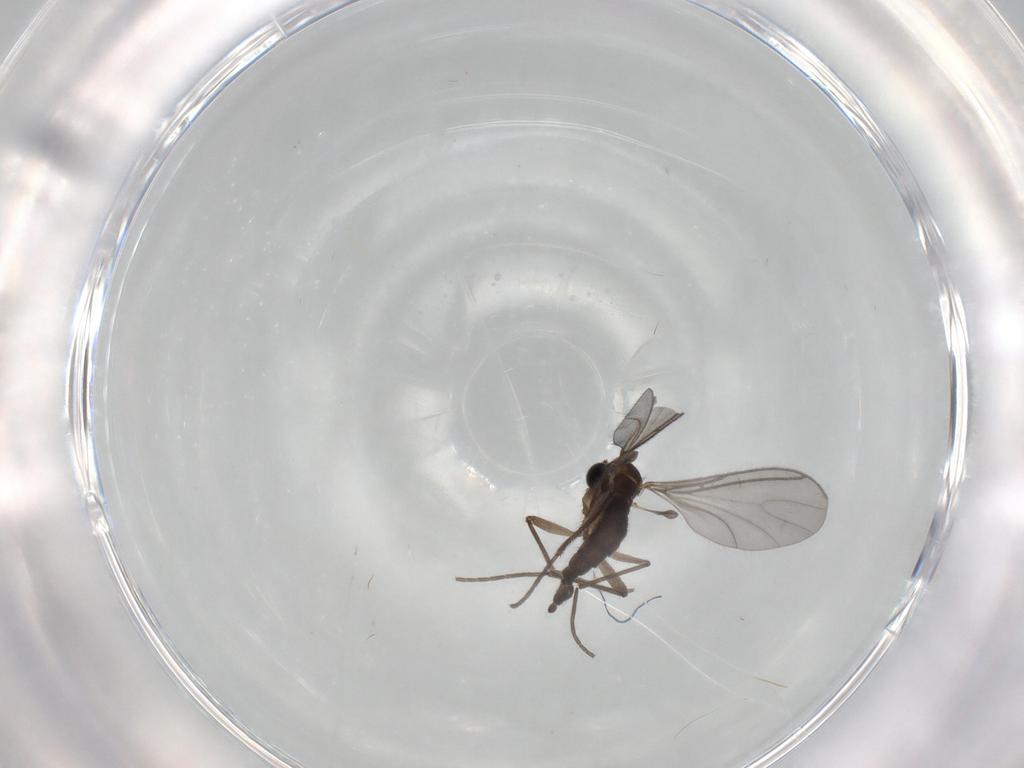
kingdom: Animalia
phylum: Arthropoda
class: Insecta
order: Diptera
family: Sciaridae
